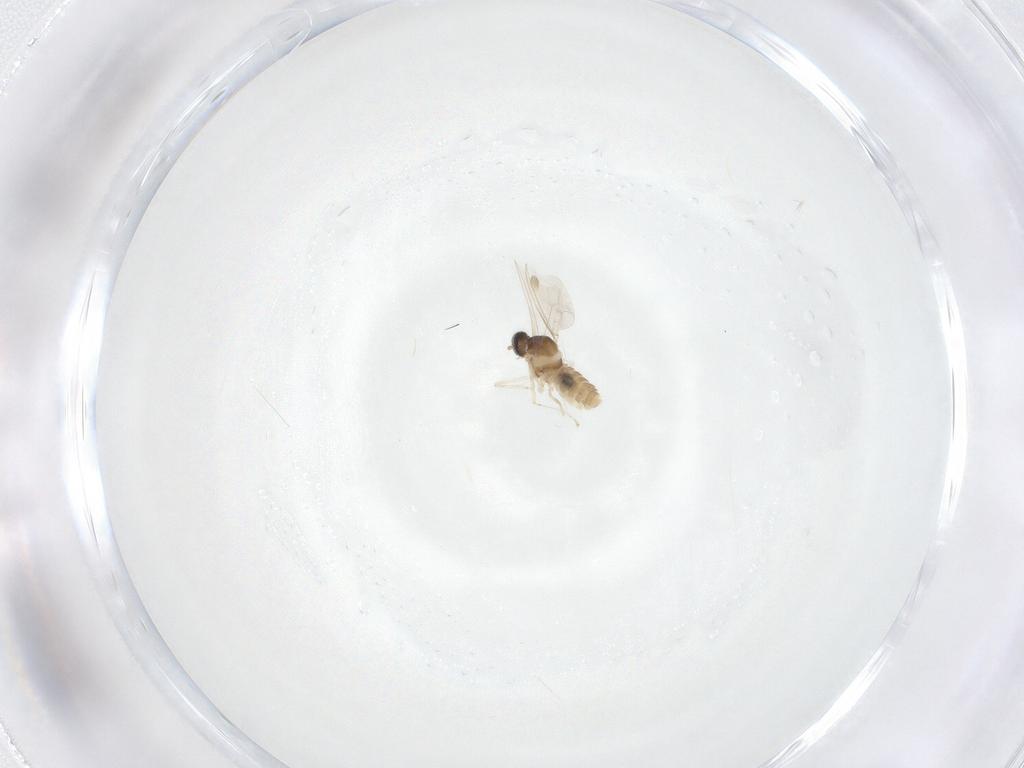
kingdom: Animalia
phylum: Arthropoda
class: Insecta
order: Diptera
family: Cecidomyiidae
